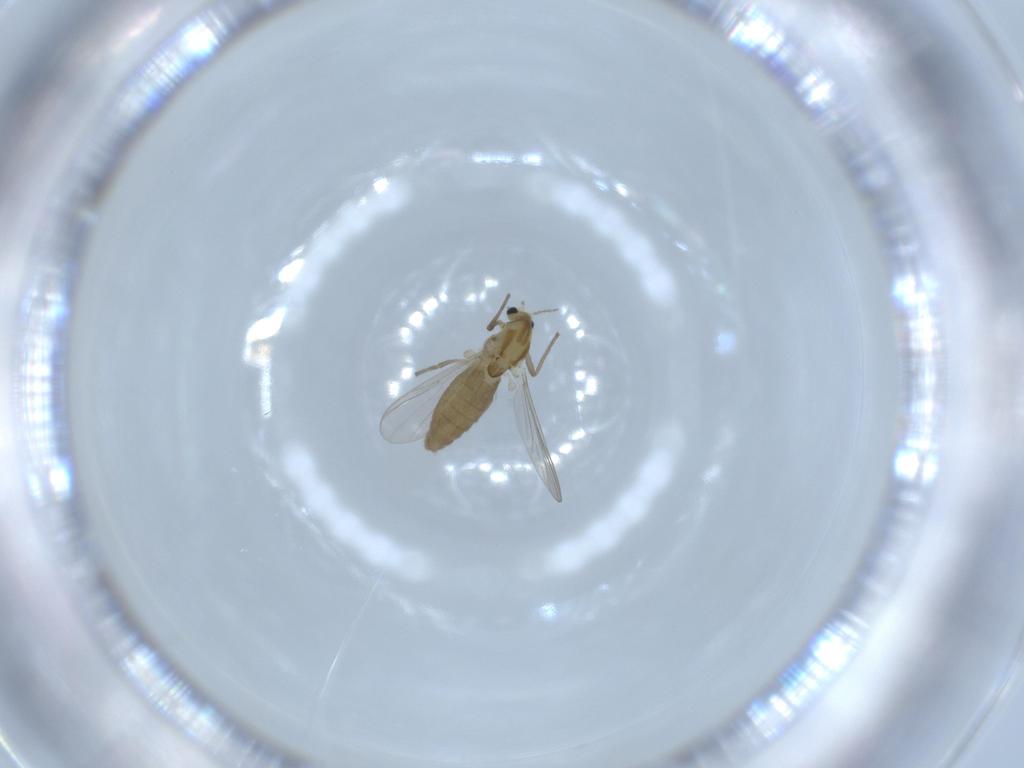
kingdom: Animalia
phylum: Arthropoda
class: Insecta
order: Diptera
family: Chironomidae
